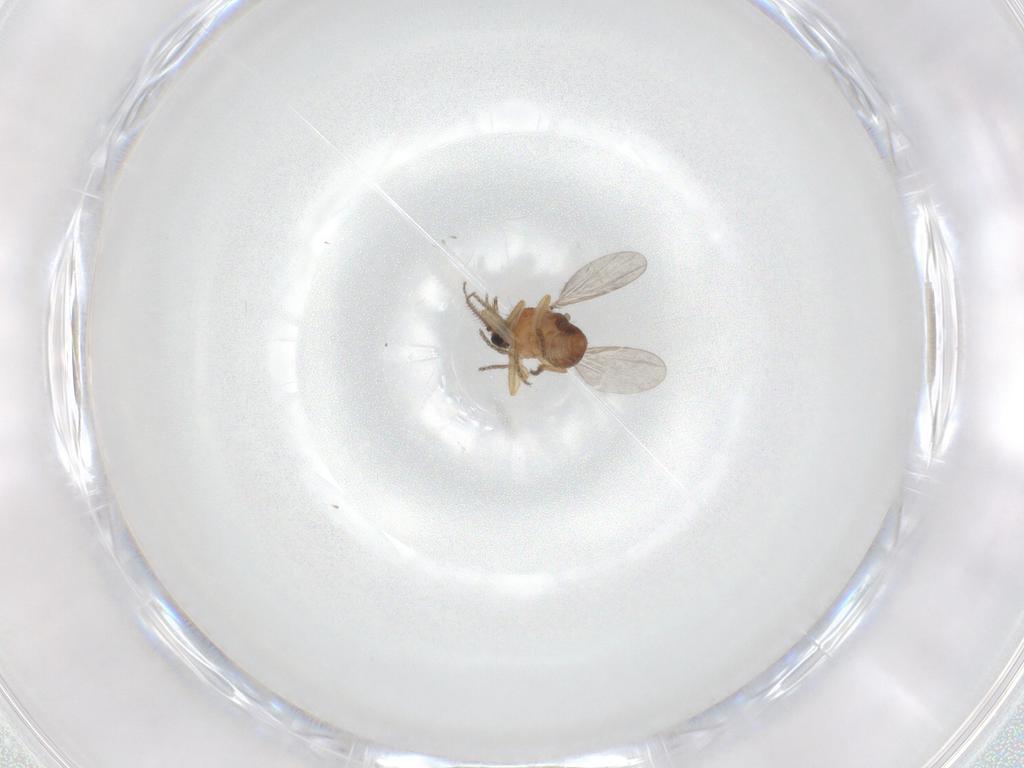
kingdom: Animalia
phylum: Arthropoda
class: Insecta
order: Diptera
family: Ceratopogonidae
